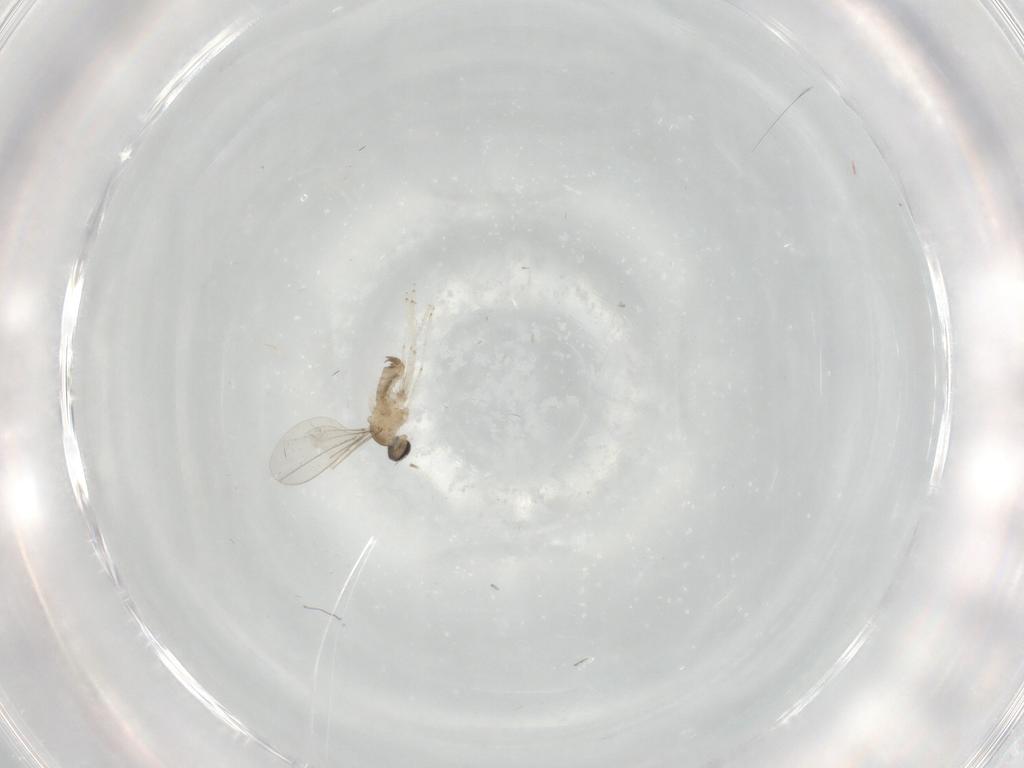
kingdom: Animalia
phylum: Arthropoda
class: Insecta
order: Diptera
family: Cecidomyiidae
